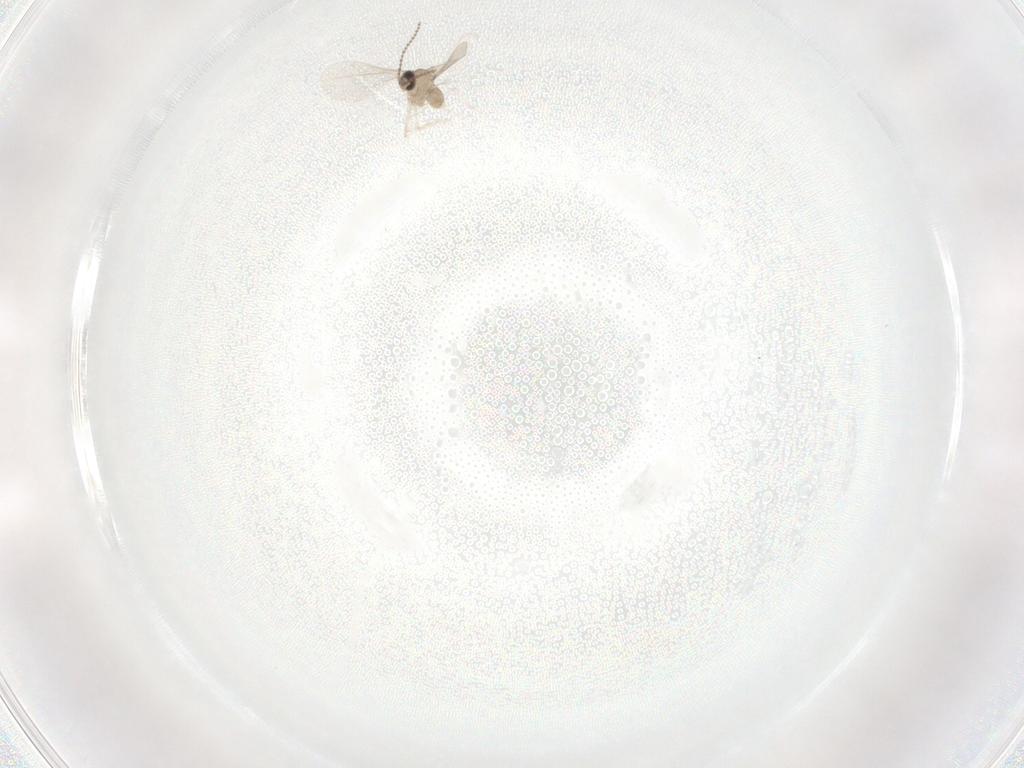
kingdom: Animalia
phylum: Arthropoda
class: Insecta
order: Diptera
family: Cecidomyiidae
